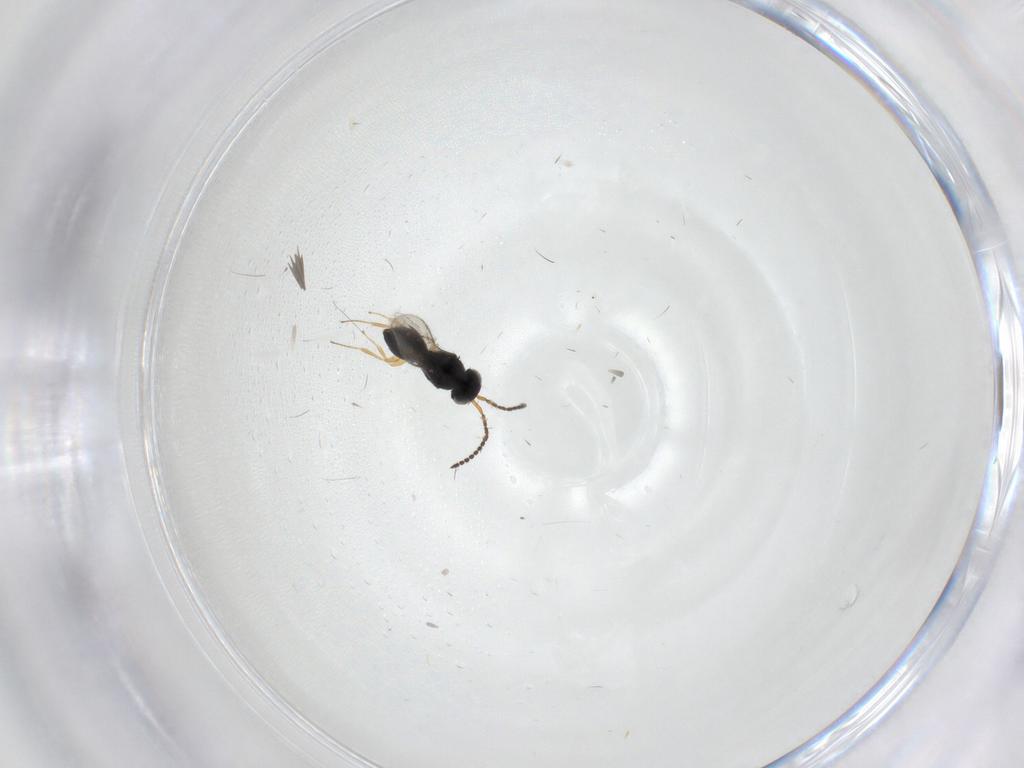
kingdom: Animalia
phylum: Arthropoda
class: Insecta
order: Hymenoptera
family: Scelionidae
